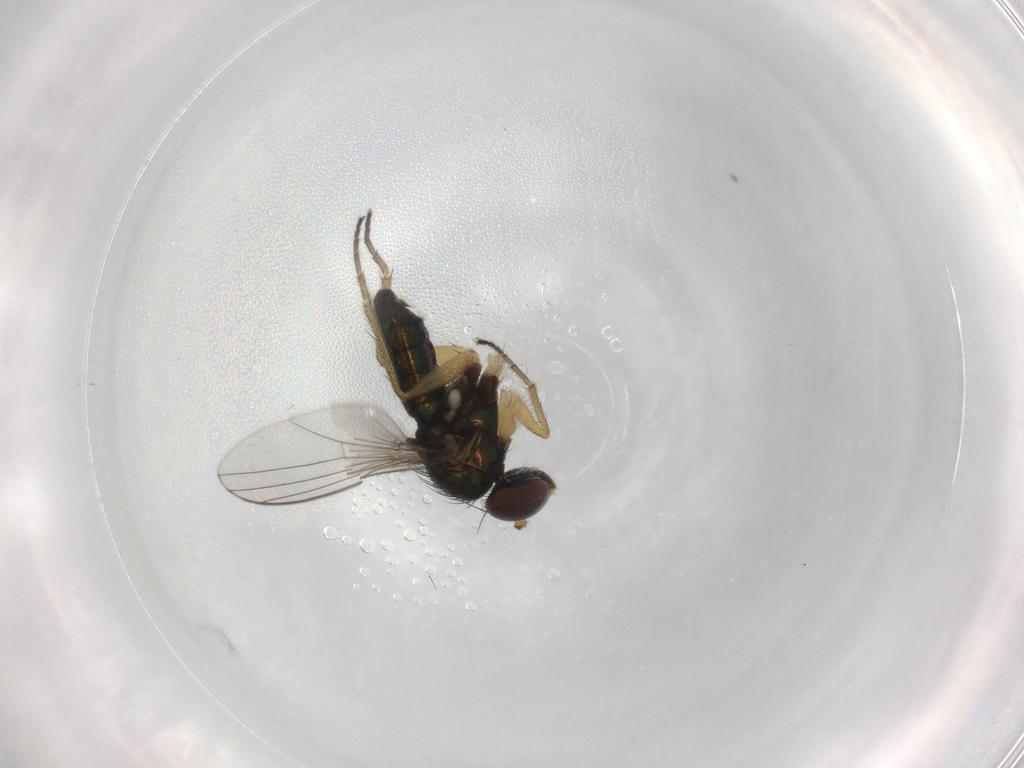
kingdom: Animalia
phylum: Arthropoda
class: Insecta
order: Diptera
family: Dolichopodidae
